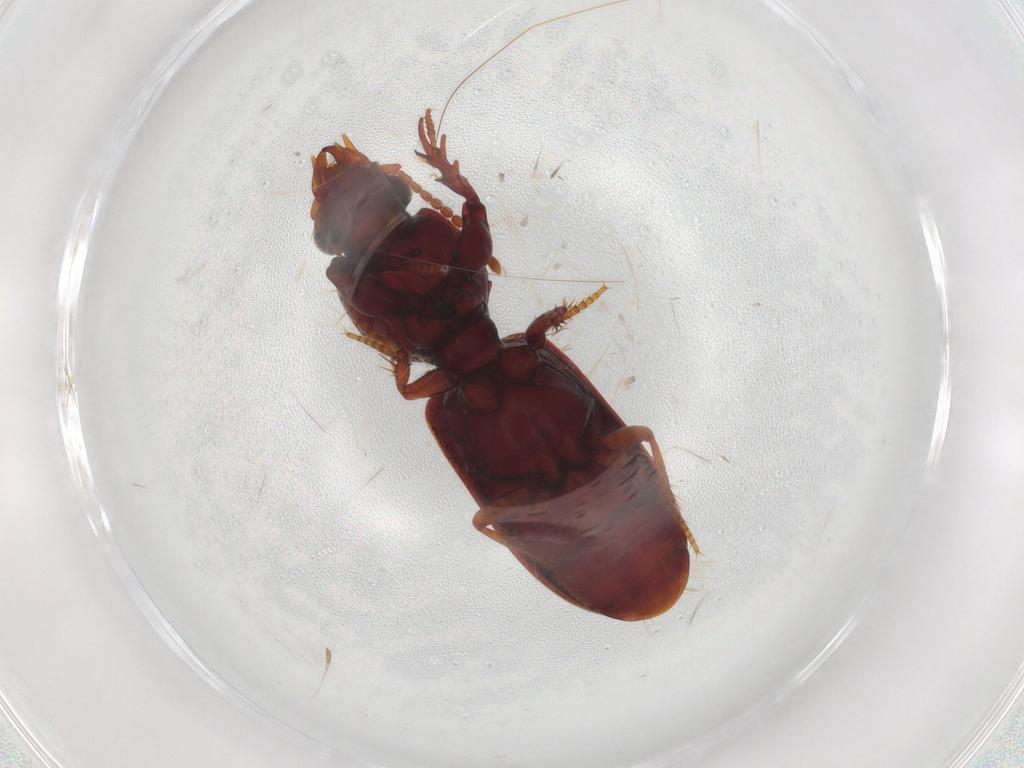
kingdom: Animalia
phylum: Arthropoda
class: Insecta
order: Coleoptera
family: Carabidae
